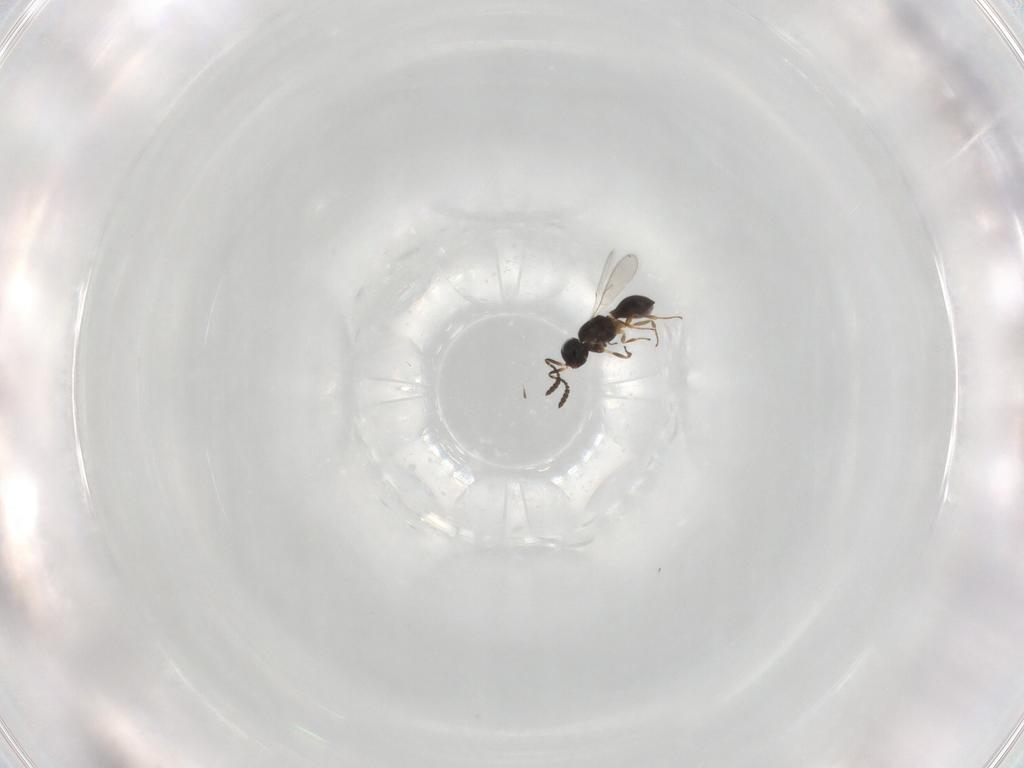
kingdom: Animalia
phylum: Arthropoda
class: Insecta
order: Hymenoptera
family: Scelionidae
